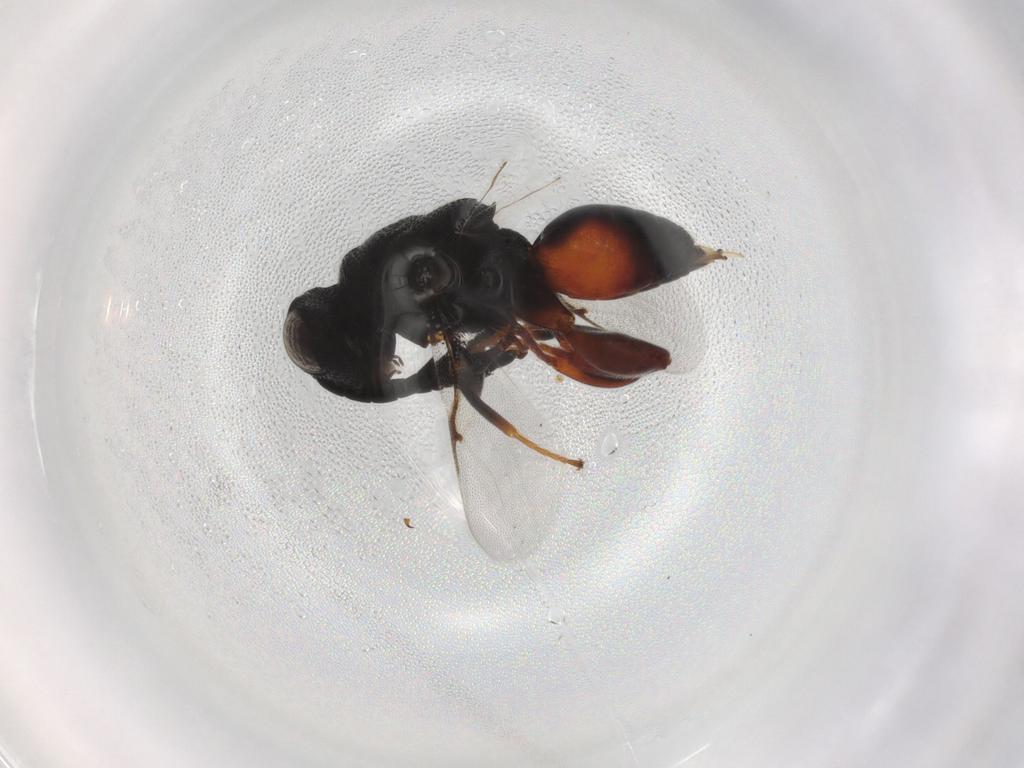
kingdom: Animalia
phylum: Arthropoda
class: Insecta
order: Hymenoptera
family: Chalcididae
